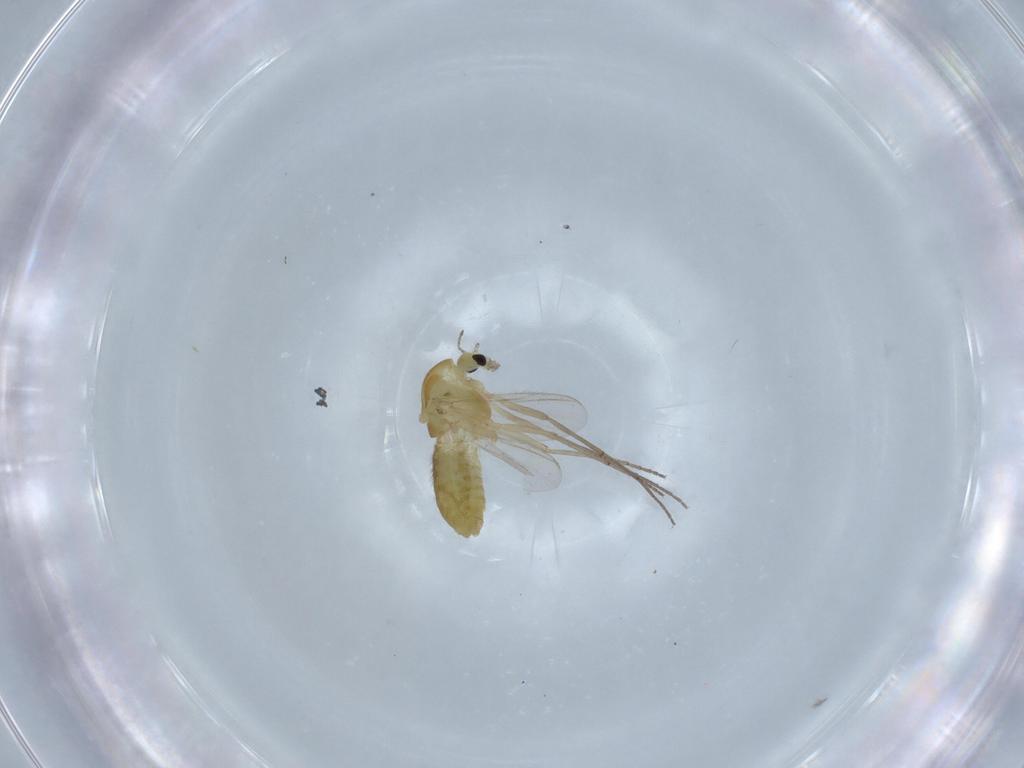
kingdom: Animalia
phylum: Arthropoda
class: Insecta
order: Diptera
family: Cecidomyiidae
